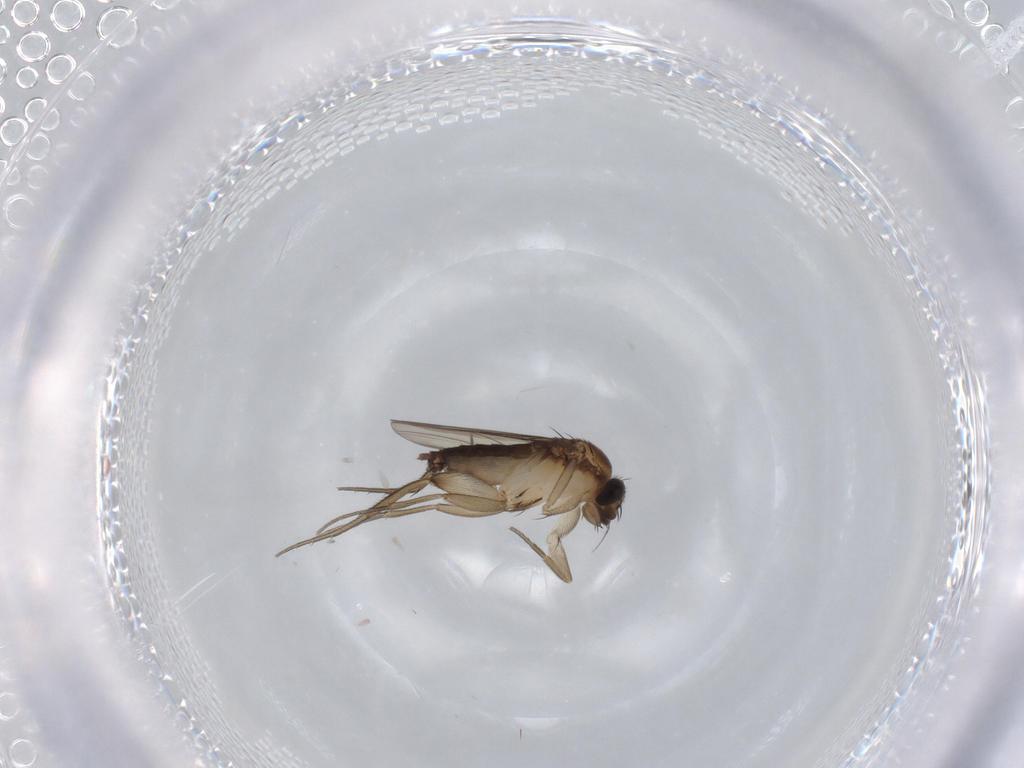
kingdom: Animalia
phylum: Arthropoda
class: Insecta
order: Diptera
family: Phoridae
